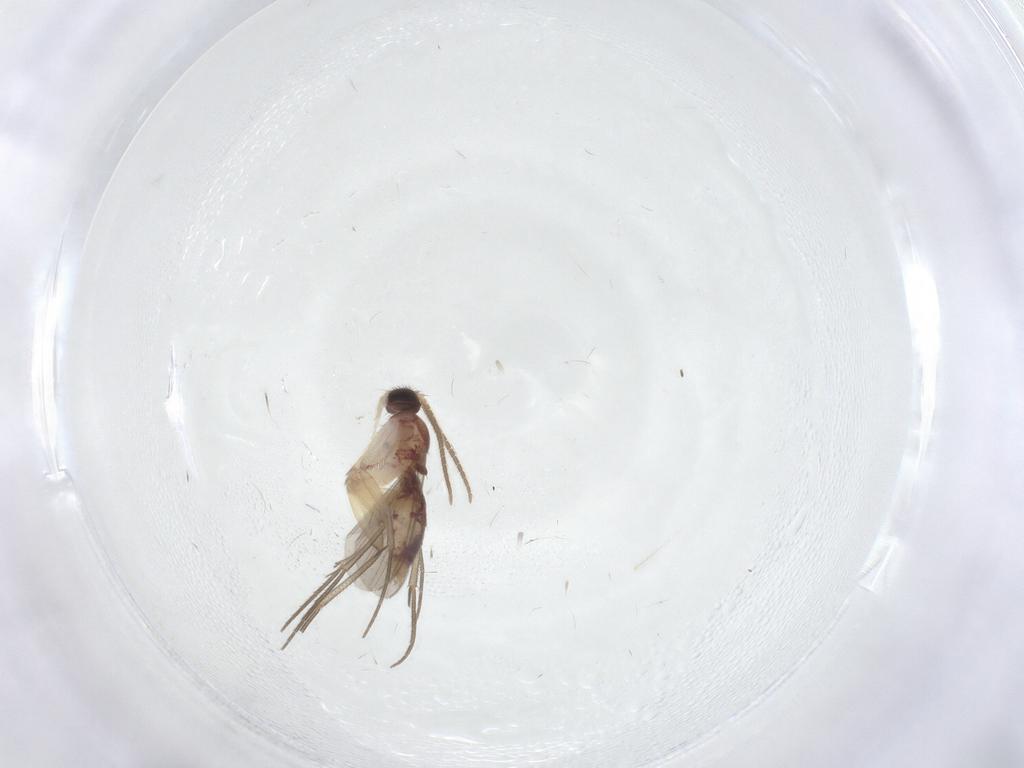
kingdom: Animalia
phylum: Arthropoda
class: Insecta
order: Diptera
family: Mycetophilidae
